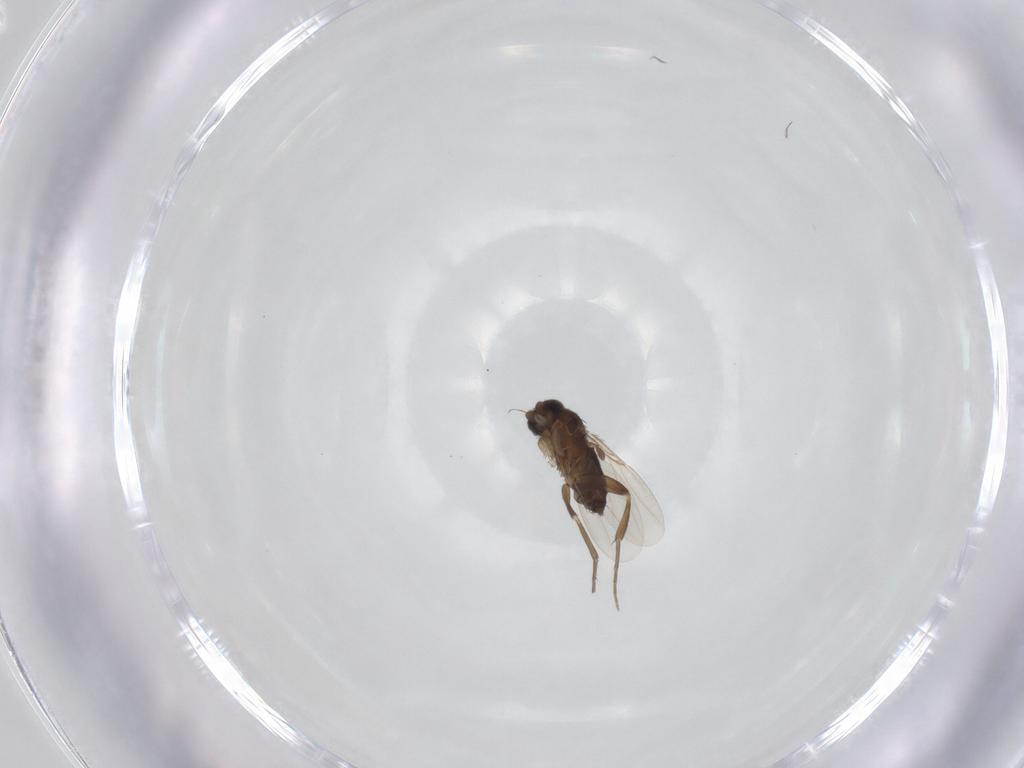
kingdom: Animalia
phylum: Arthropoda
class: Insecta
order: Diptera
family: Phoridae
